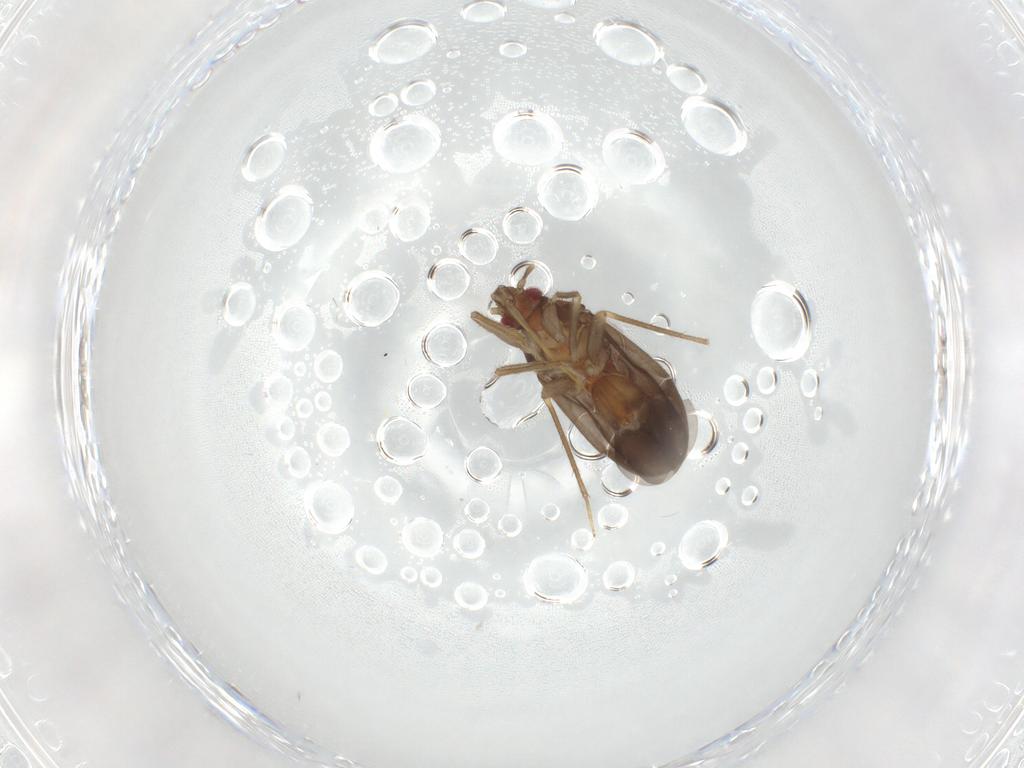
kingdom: Animalia
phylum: Arthropoda
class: Insecta
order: Hemiptera
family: Ceratocombidae
